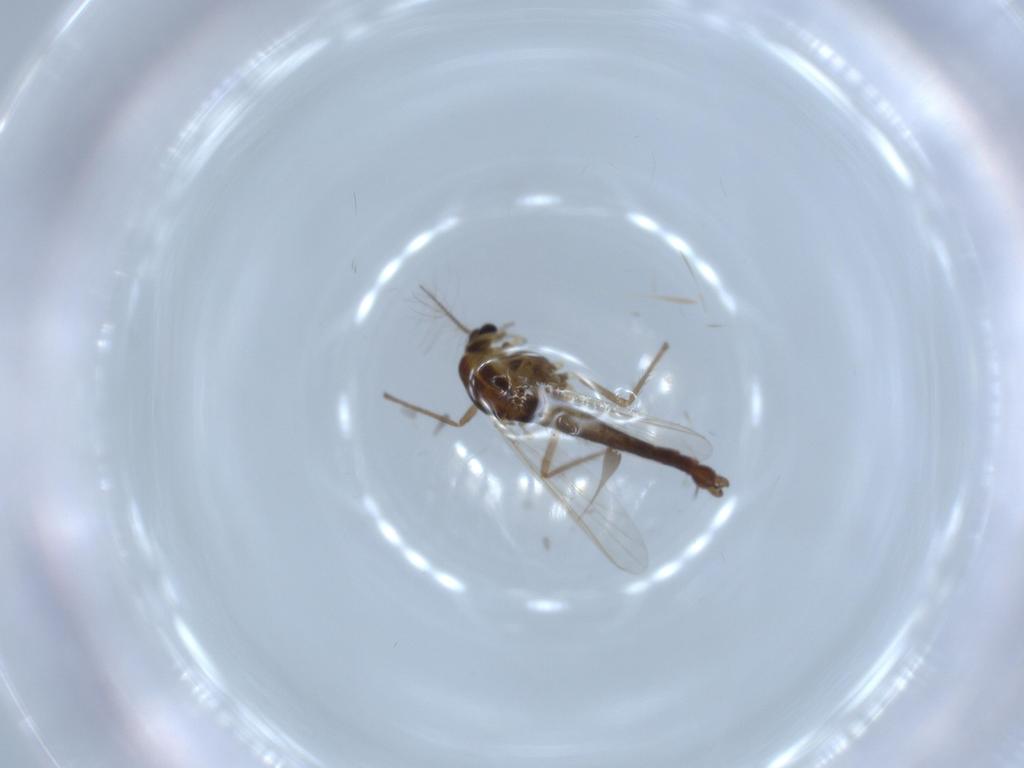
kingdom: Animalia
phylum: Arthropoda
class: Insecta
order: Diptera
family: Chironomidae
